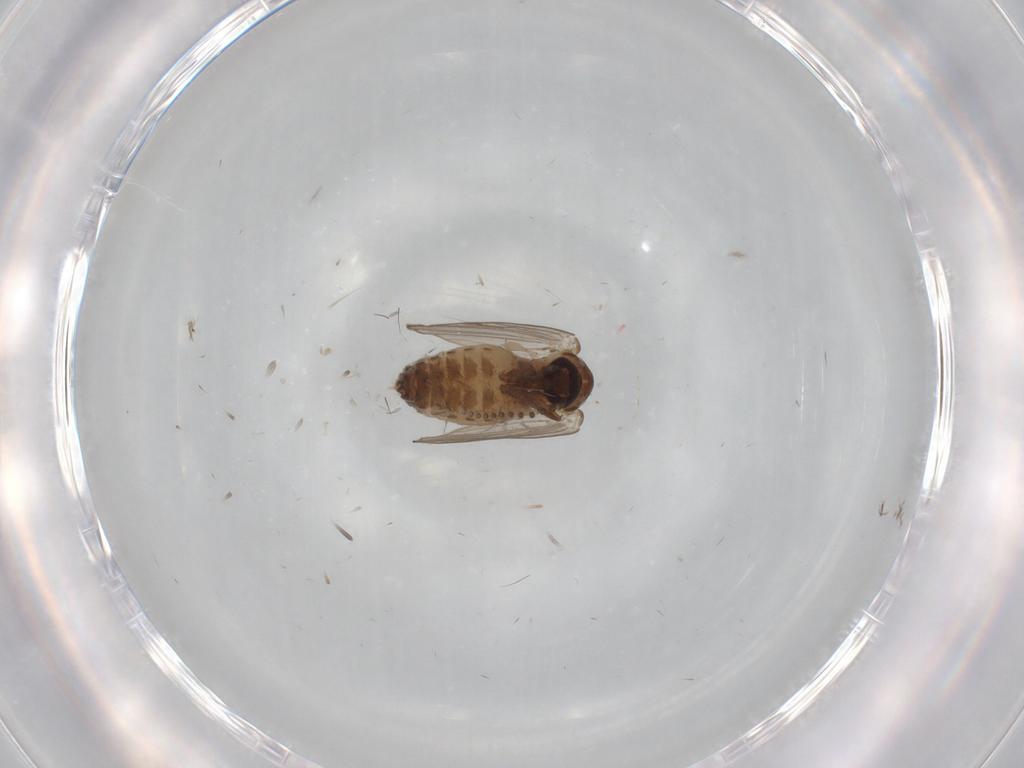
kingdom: Animalia
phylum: Arthropoda
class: Insecta
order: Diptera
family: Psychodidae
